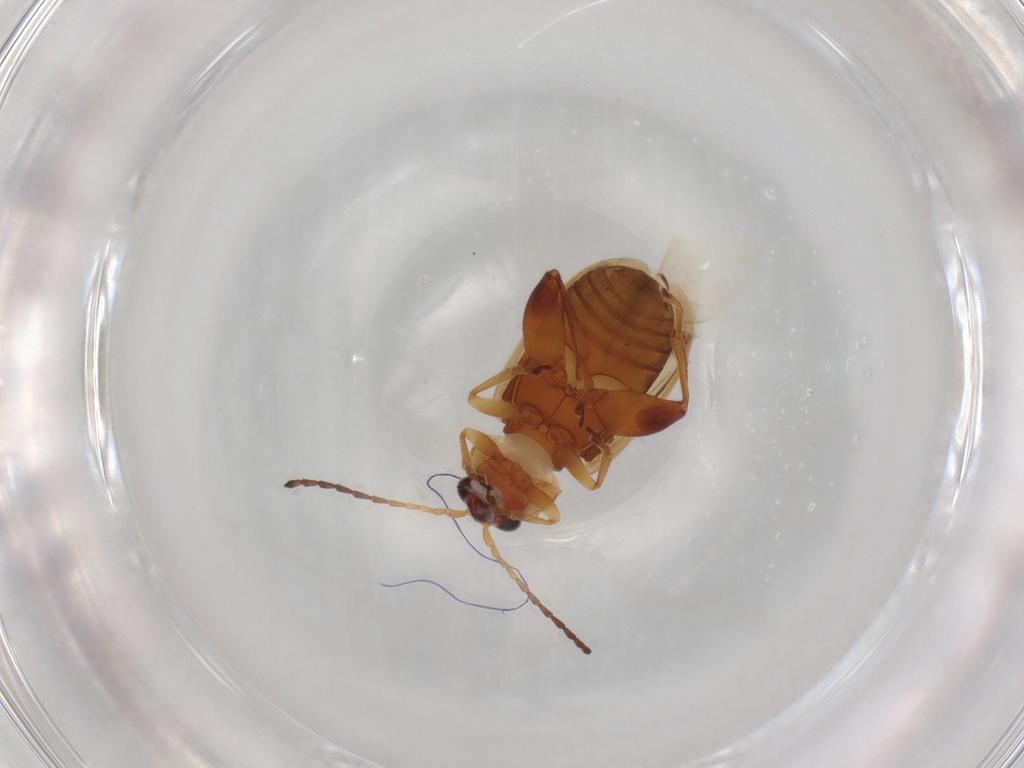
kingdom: Animalia
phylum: Arthropoda
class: Insecta
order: Coleoptera
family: Chrysomelidae
